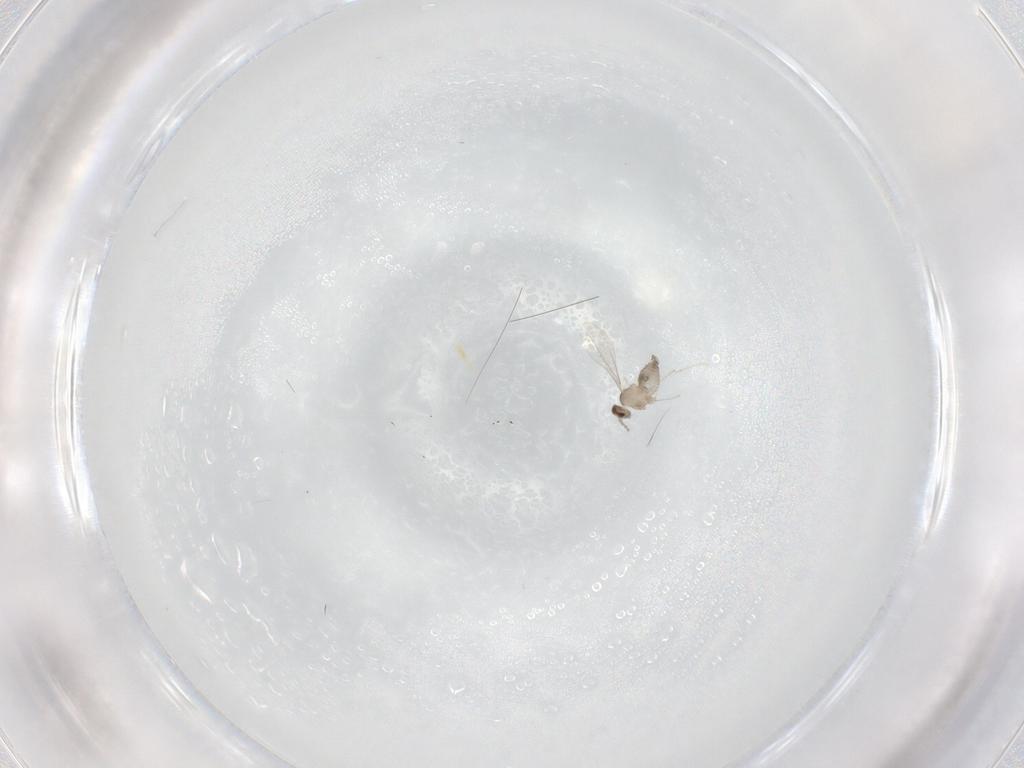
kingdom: Animalia
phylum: Arthropoda
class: Insecta
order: Diptera
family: Cecidomyiidae
